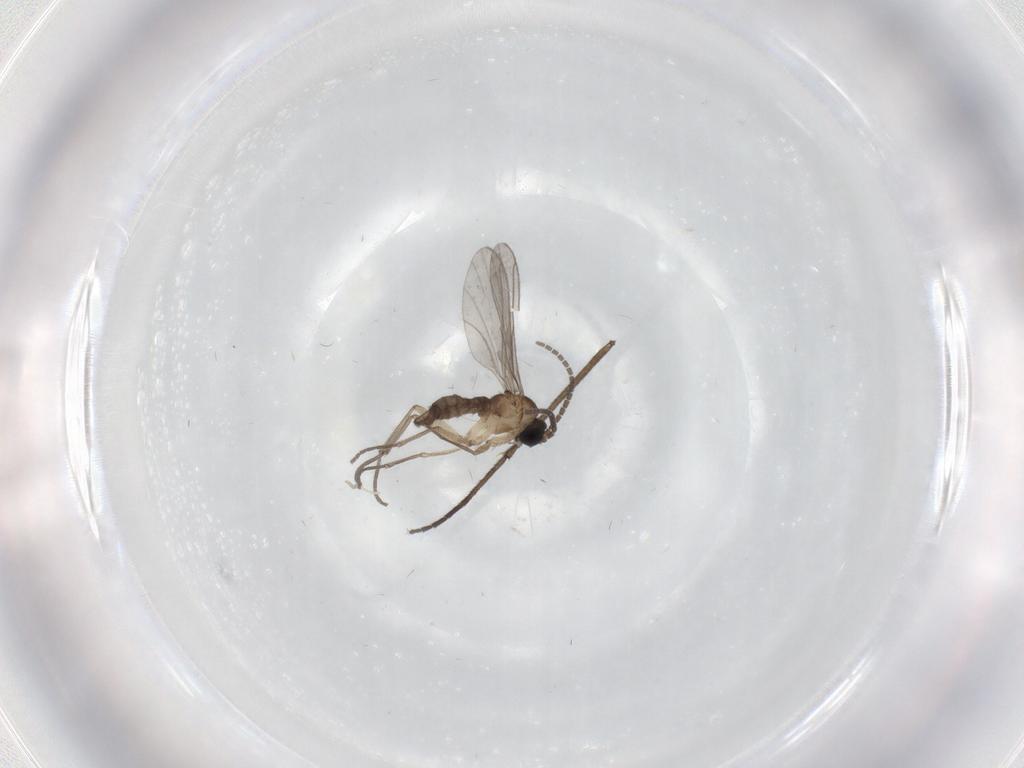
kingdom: Animalia
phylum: Arthropoda
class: Insecta
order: Diptera
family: Sciaridae
